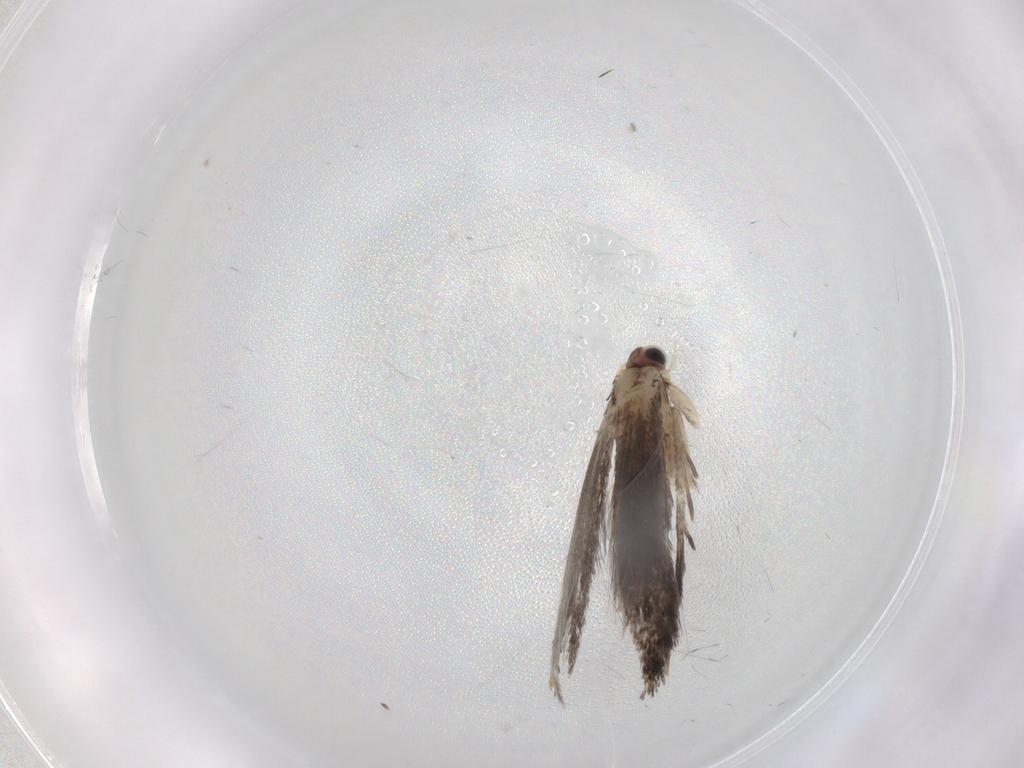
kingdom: Animalia
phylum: Arthropoda
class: Insecta
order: Lepidoptera
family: Tineidae
